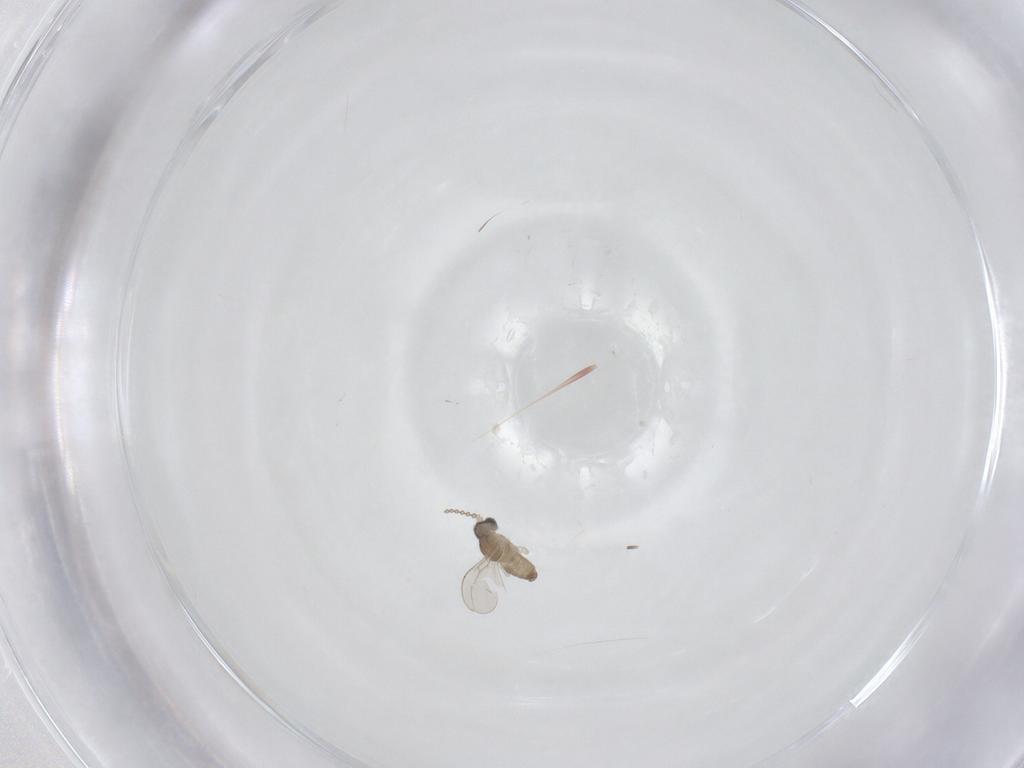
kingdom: Animalia
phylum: Arthropoda
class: Insecta
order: Diptera
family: Cecidomyiidae
